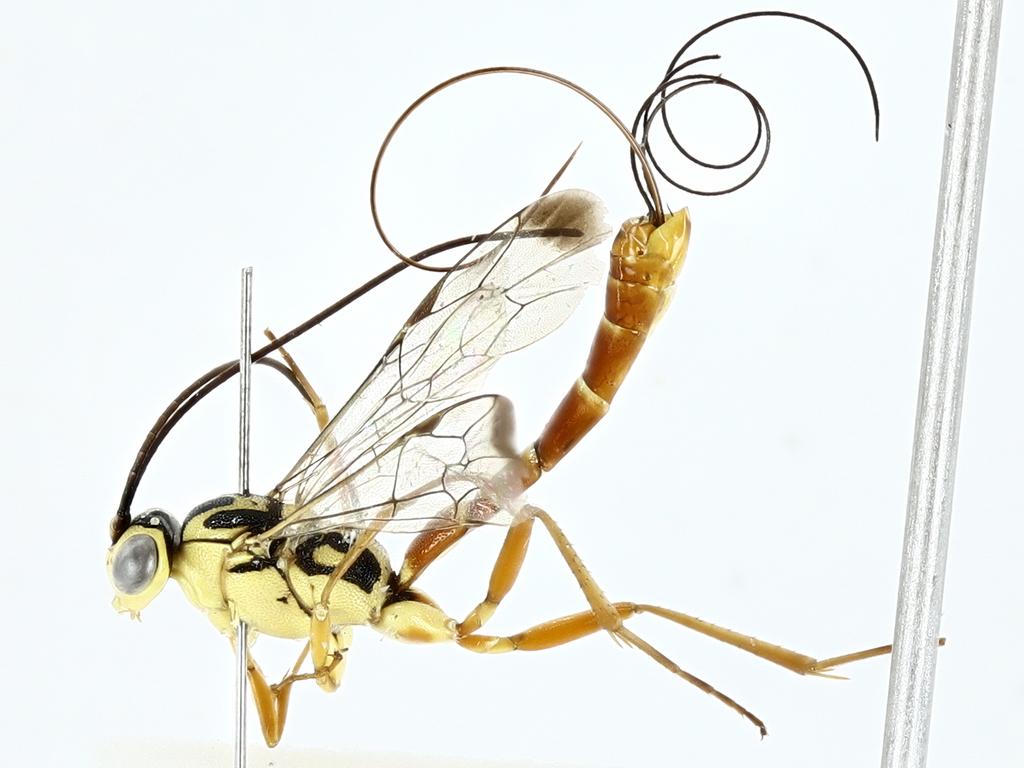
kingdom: Animalia
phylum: Arthropoda
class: Insecta
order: Hymenoptera
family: Ichneumonidae
